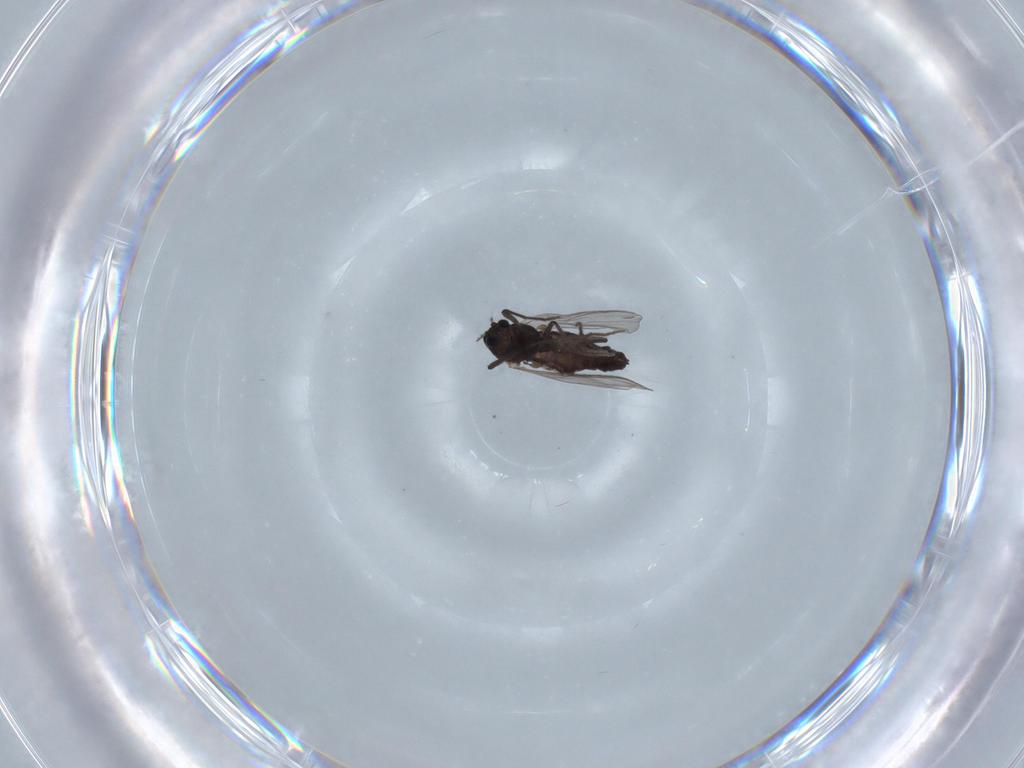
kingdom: Animalia
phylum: Arthropoda
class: Insecta
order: Diptera
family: Chironomidae
